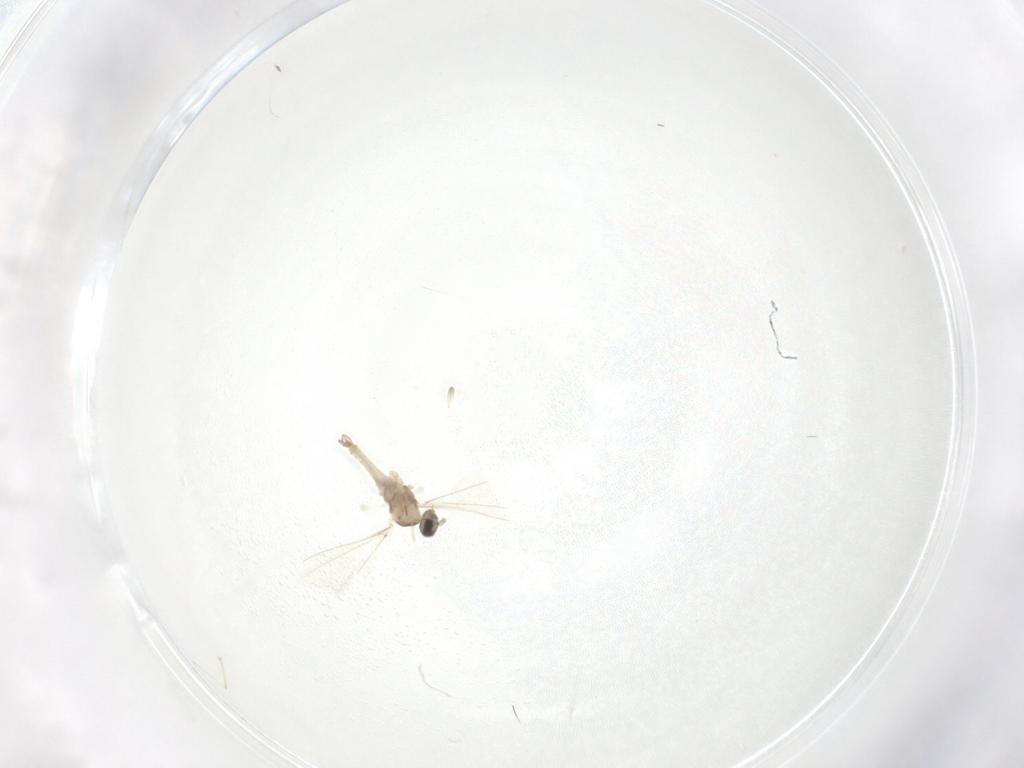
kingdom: Animalia
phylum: Arthropoda
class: Insecta
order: Diptera
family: Cecidomyiidae
